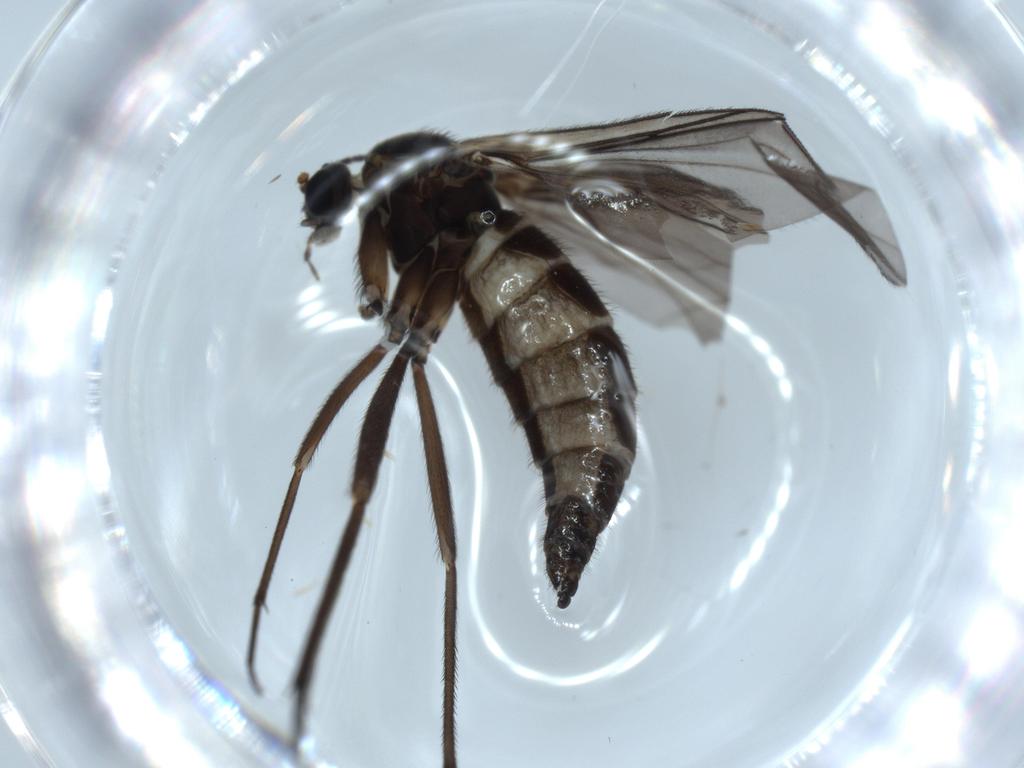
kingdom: Animalia
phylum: Arthropoda
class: Insecta
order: Diptera
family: Sciaridae
